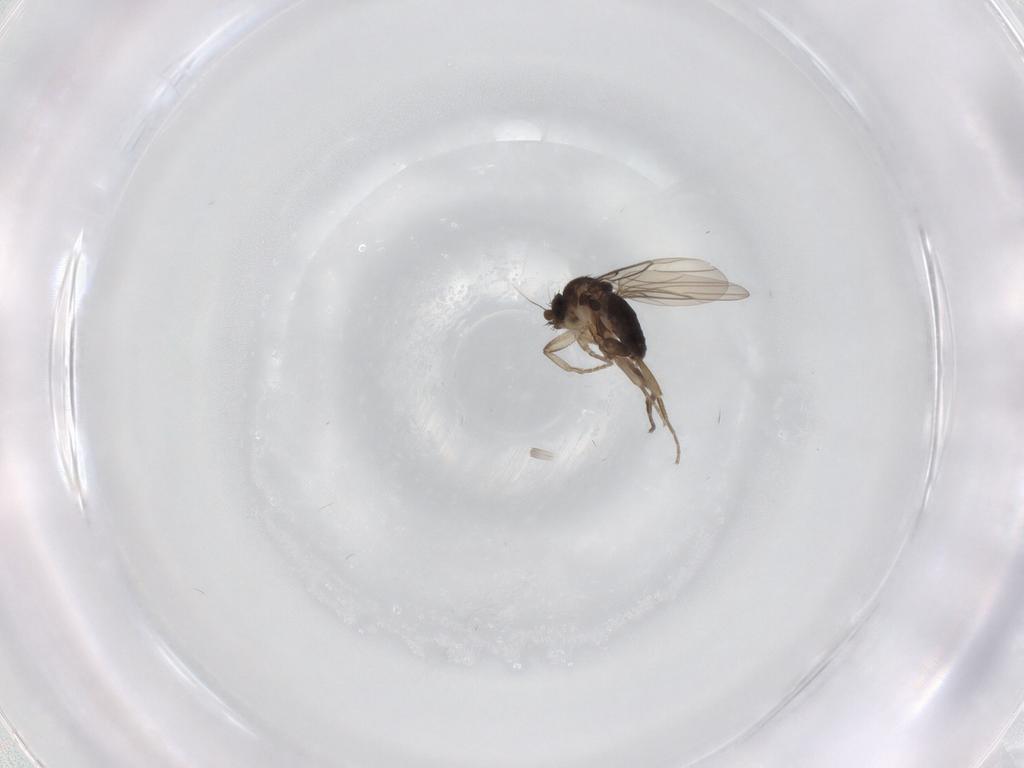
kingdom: Animalia
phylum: Arthropoda
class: Insecta
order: Diptera
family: Phoridae
